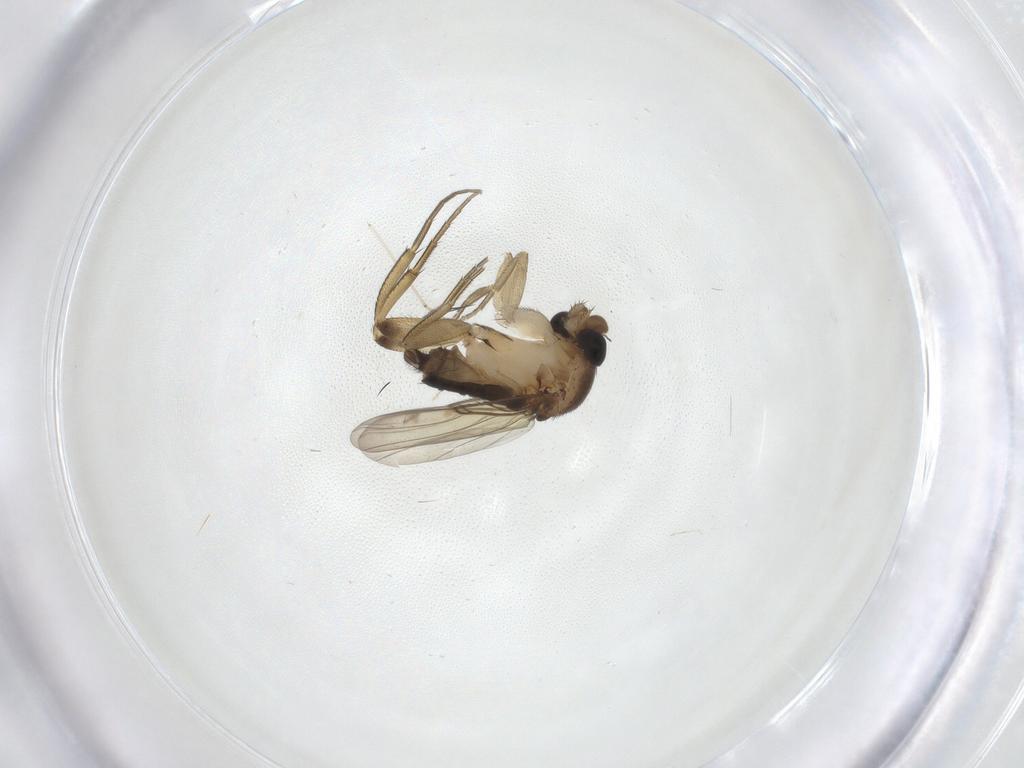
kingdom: Animalia
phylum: Arthropoda
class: Insecta
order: Diptera
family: Phoridae
